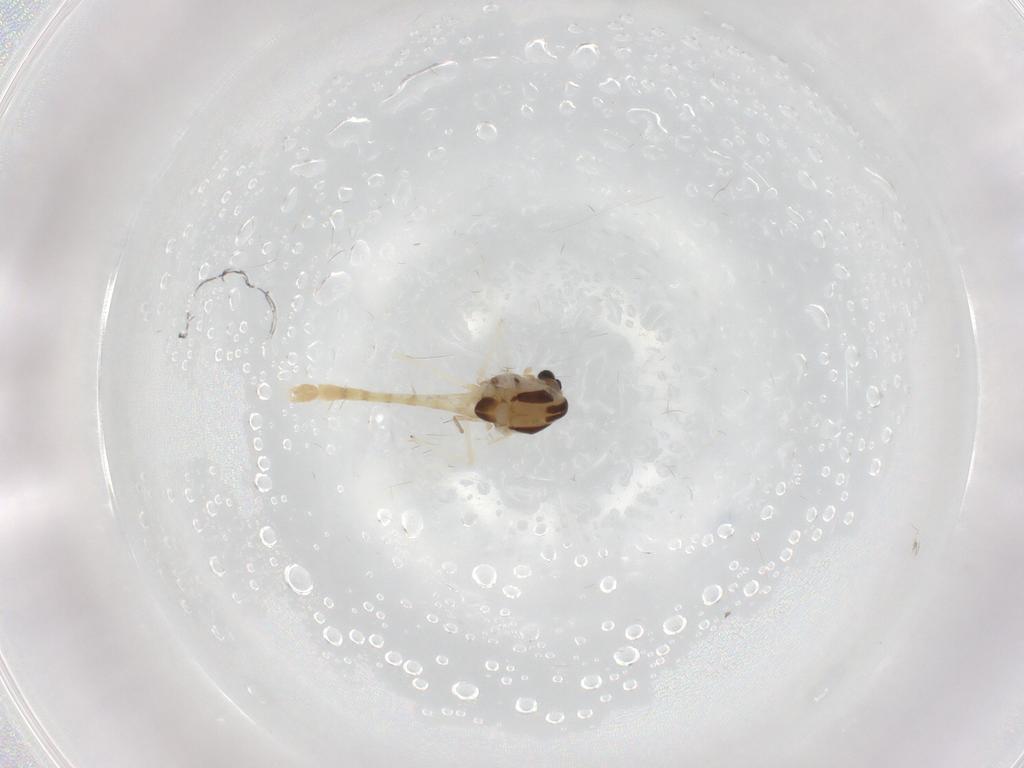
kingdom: Animalia
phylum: Arthropoda
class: Insecta
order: Diptera
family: Chironomidae
